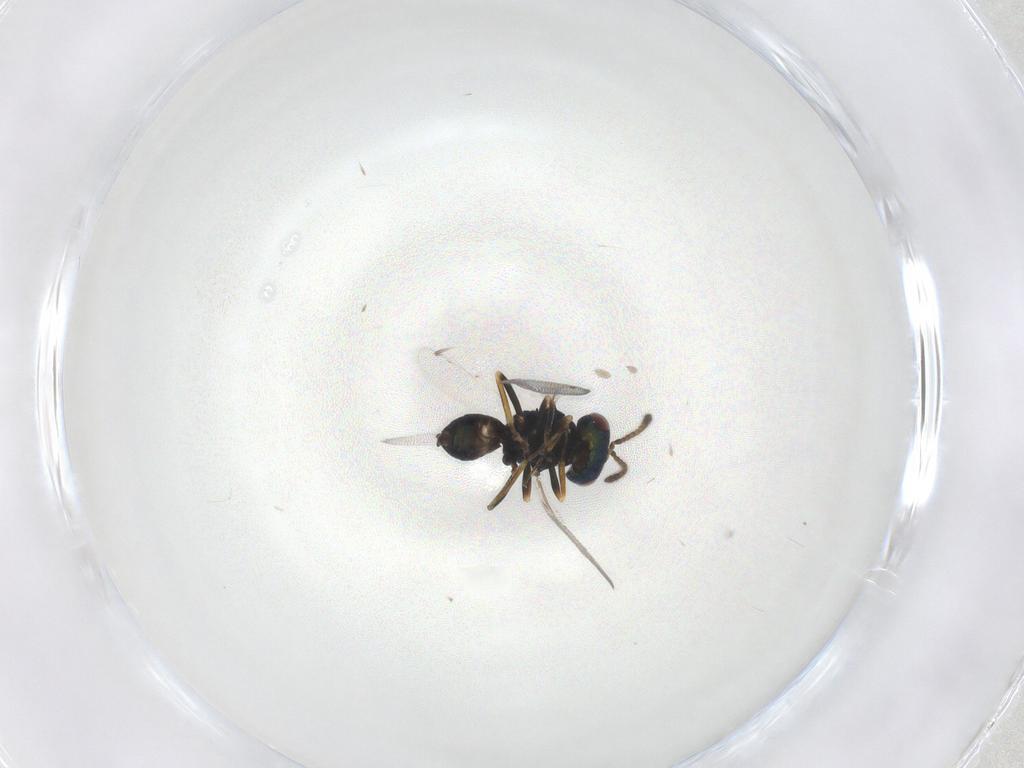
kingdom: Animalia
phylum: Arthropoda
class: Insecta
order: Hymenoptera
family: Pteromalidae
